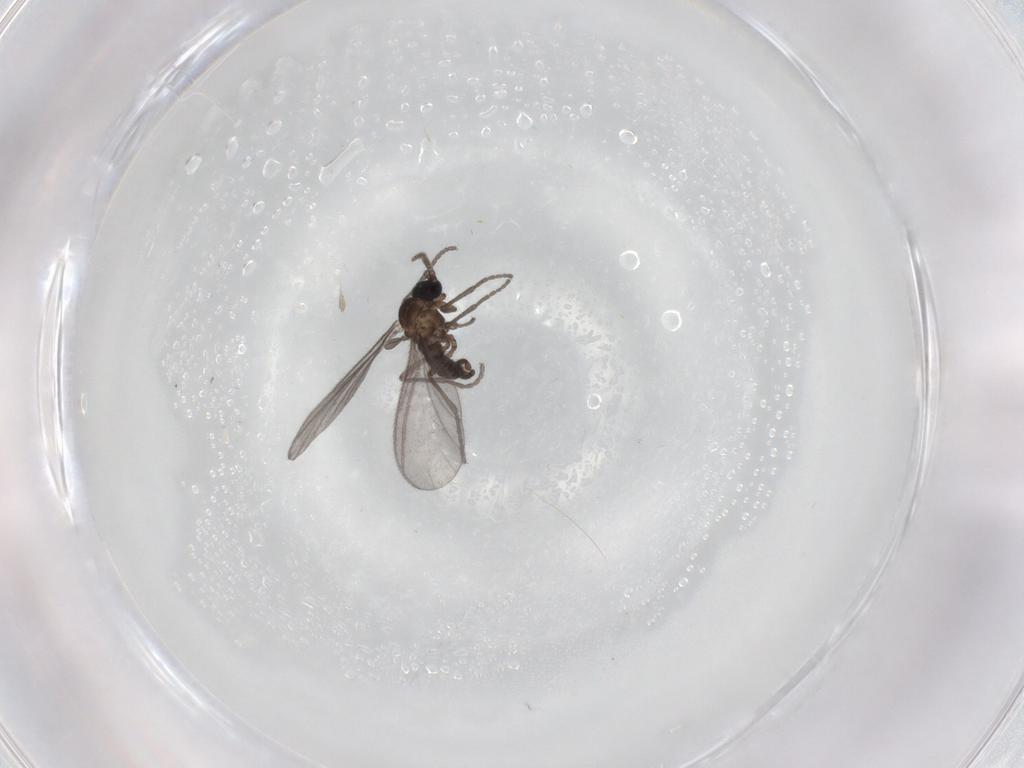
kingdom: Animalia
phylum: Arthropoda
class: Insecta
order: Diptera
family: Sciaridae
